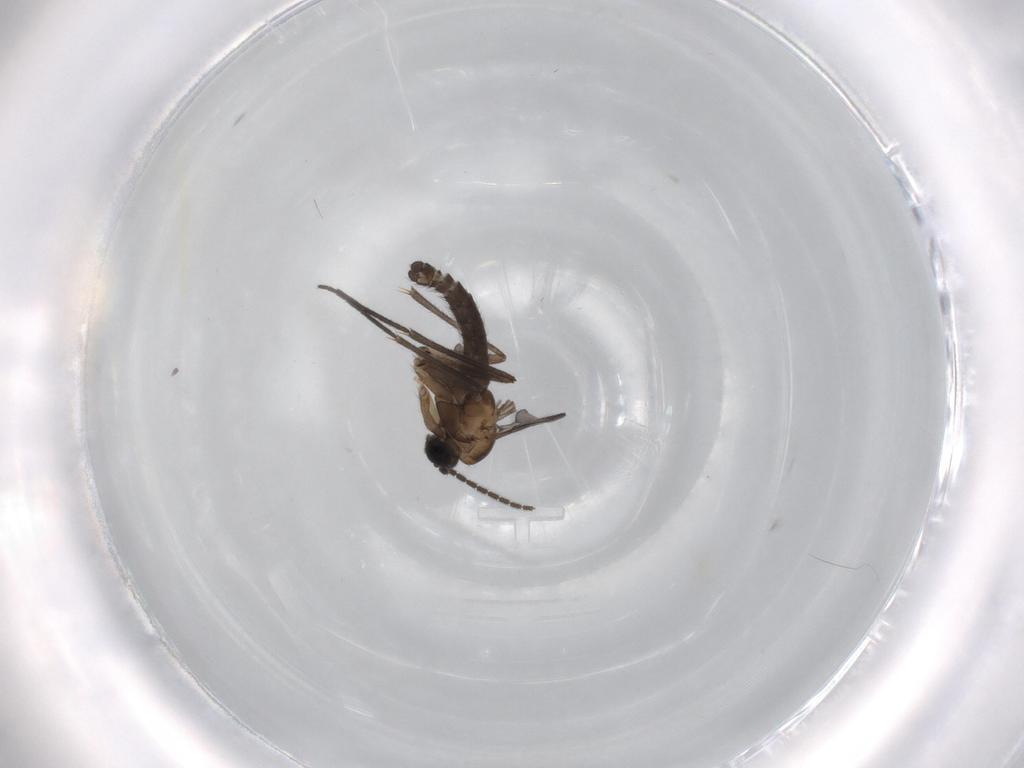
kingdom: Animalia
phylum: Arthropoda
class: Insecta
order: Diptera
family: Sciaridae
